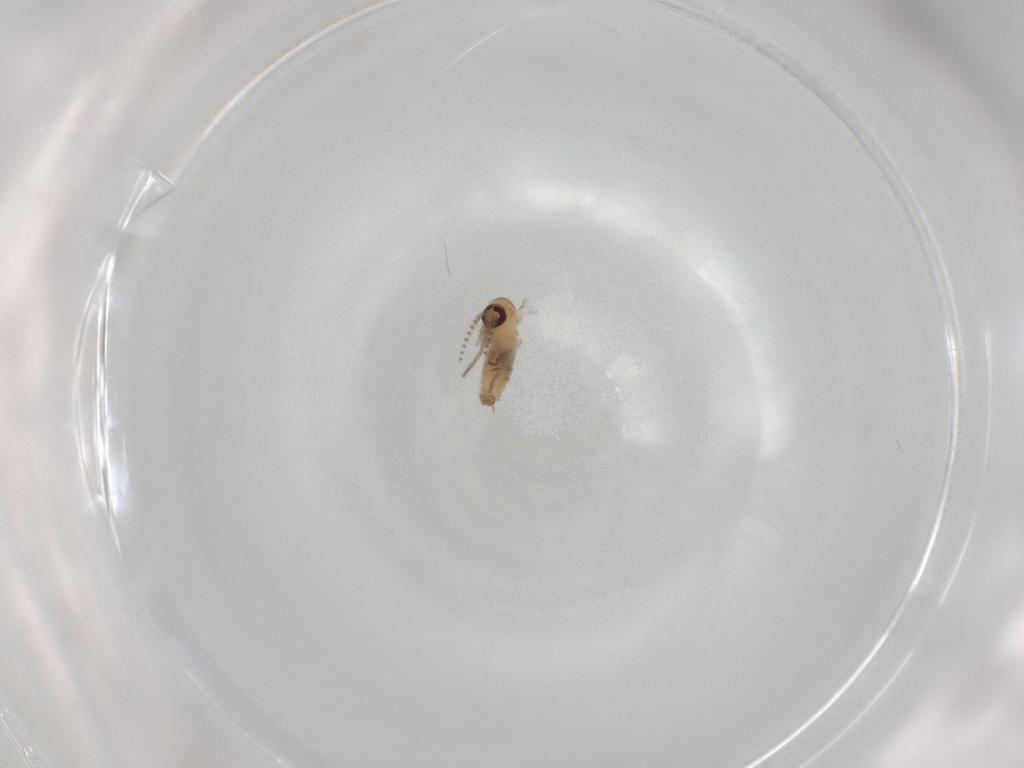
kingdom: Animalia
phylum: Arthropoda
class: Insecta
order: Diptera
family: Psychodidae
